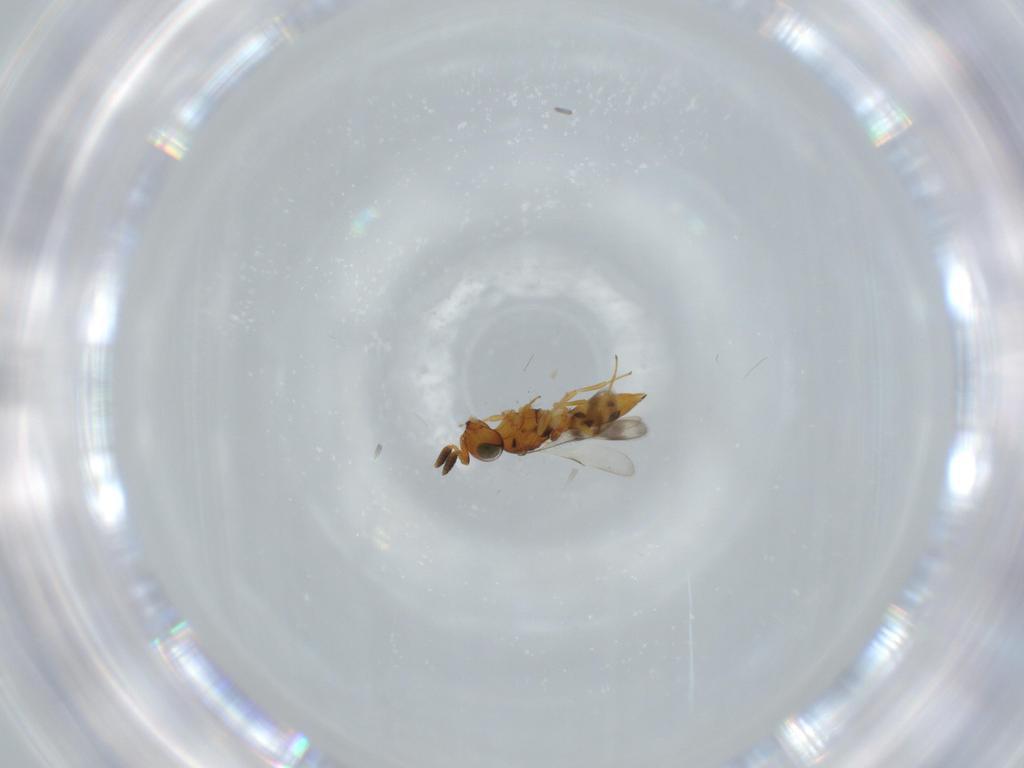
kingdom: Animalia
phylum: Arthropoda
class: Insecta
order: Hymenoptera
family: Scelionidae
